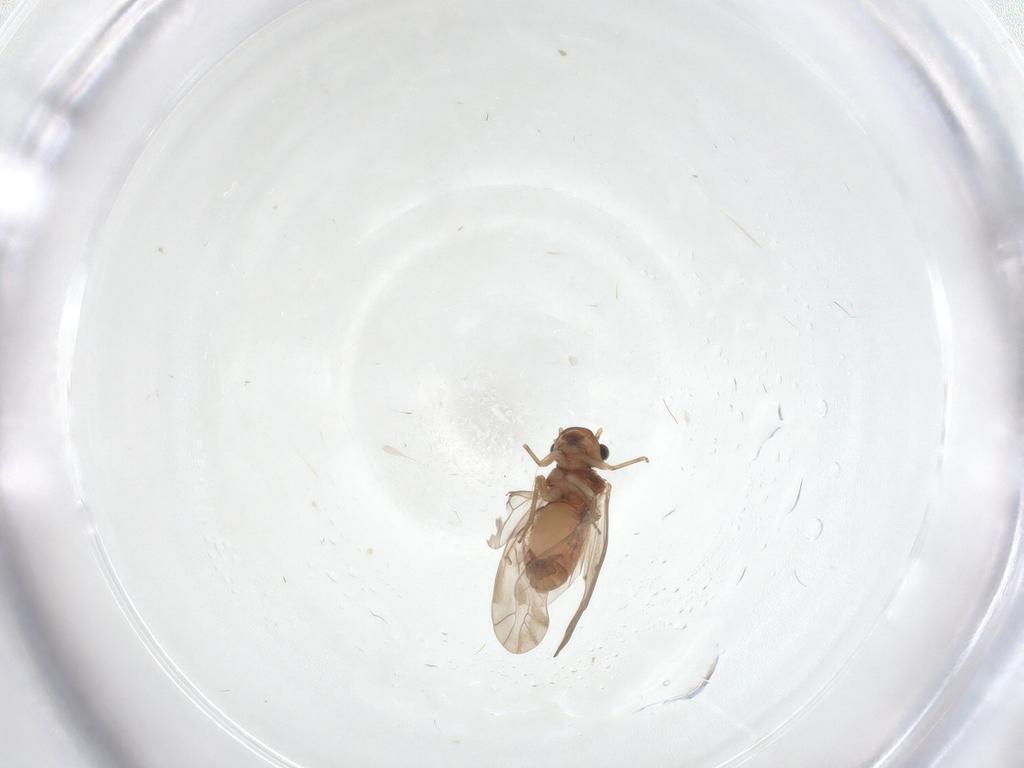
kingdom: Animalia
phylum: Arthropoda
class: Insecta
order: Psocodea
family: Lachesillidae
